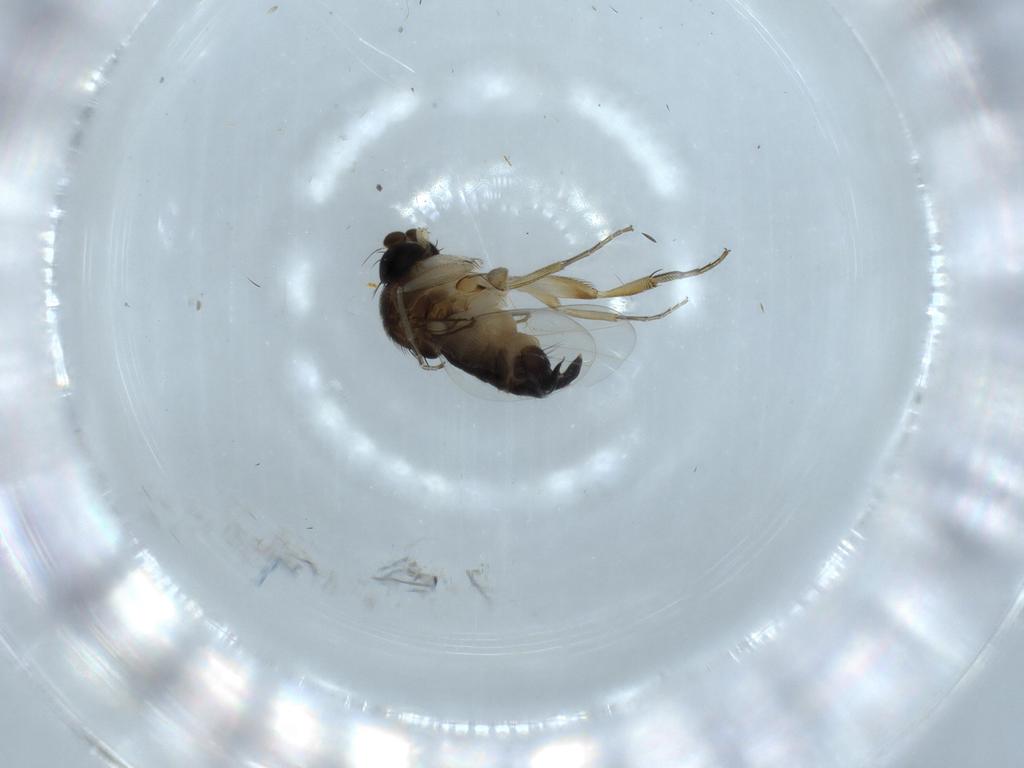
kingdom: Animalia
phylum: Arthropoda
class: Insecta
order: Diptera
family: Phoridae
